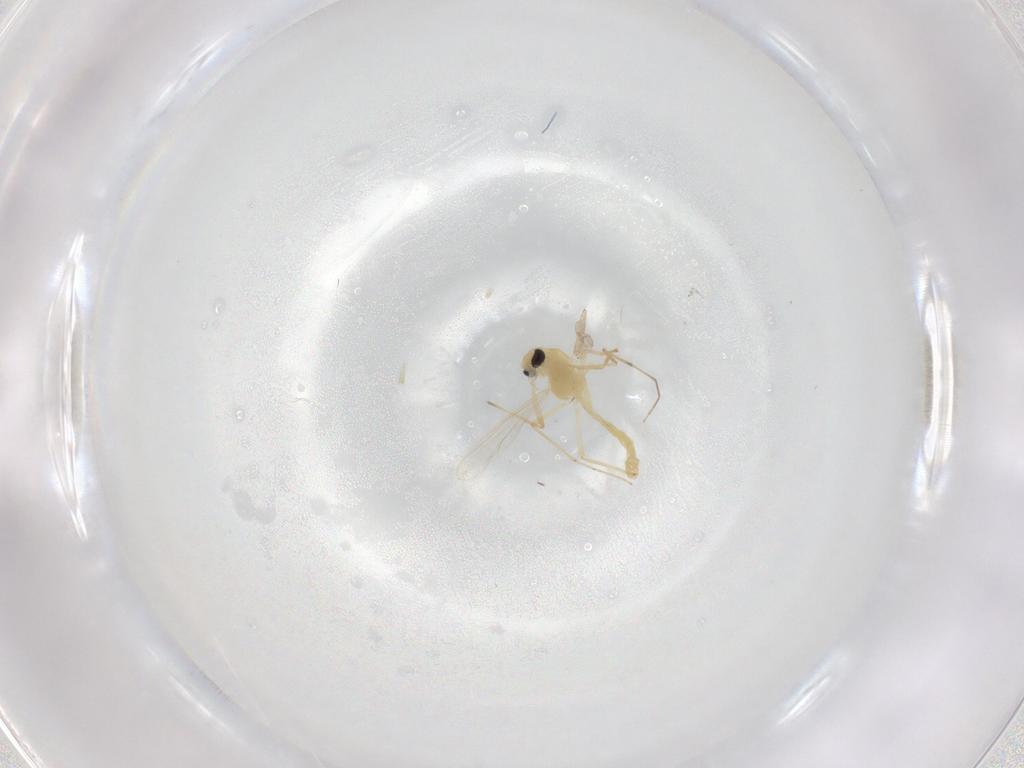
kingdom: Animalia
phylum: Arthropoda
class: Insecta
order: Diptera
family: Chironomidae
